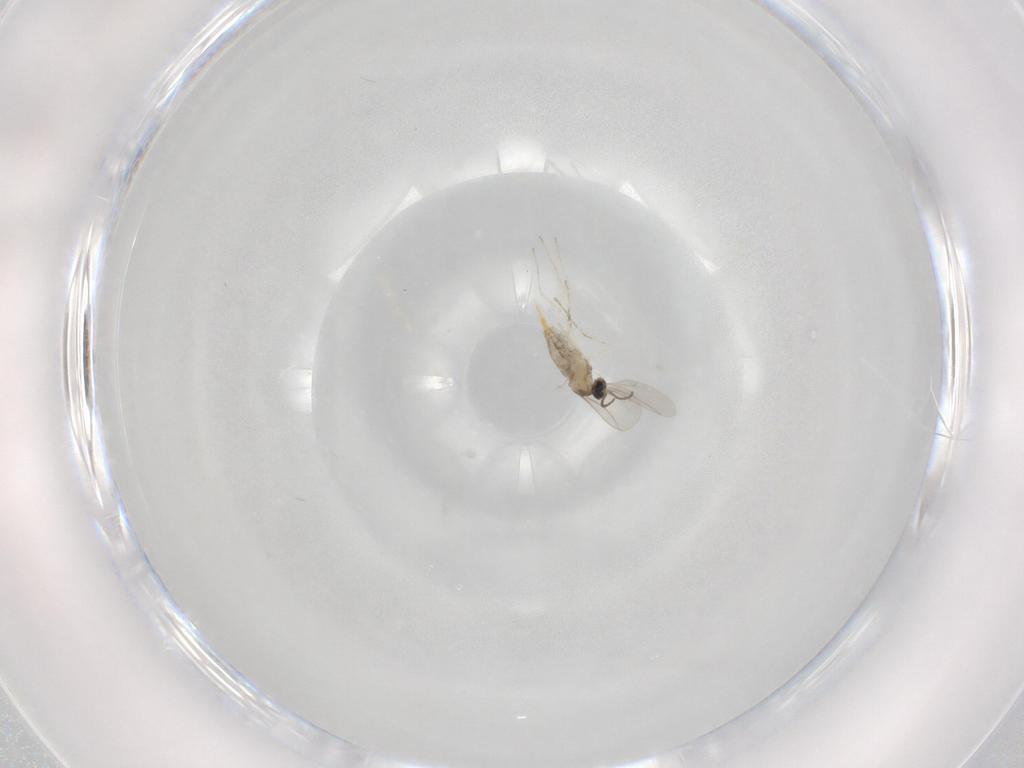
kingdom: Animalia
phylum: Arthropoda
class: Insecta
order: Diptera
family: Cecidomyiidae
